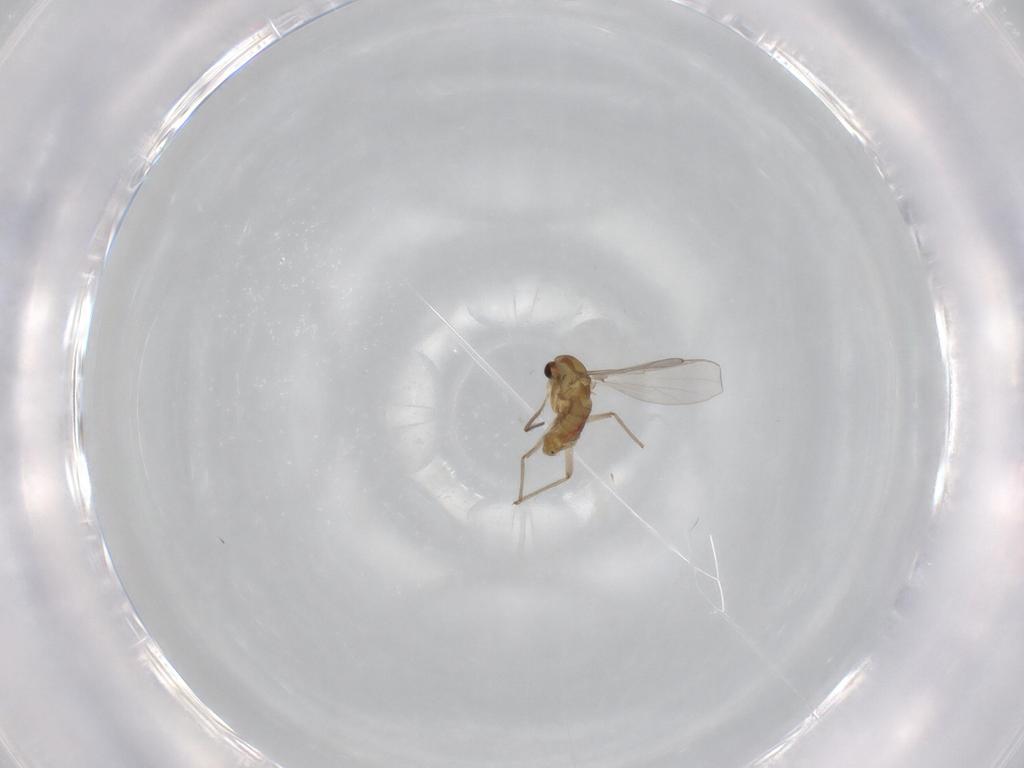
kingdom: Animalia
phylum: Arthropoda
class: Insecta
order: Diptera
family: Chironomidae
